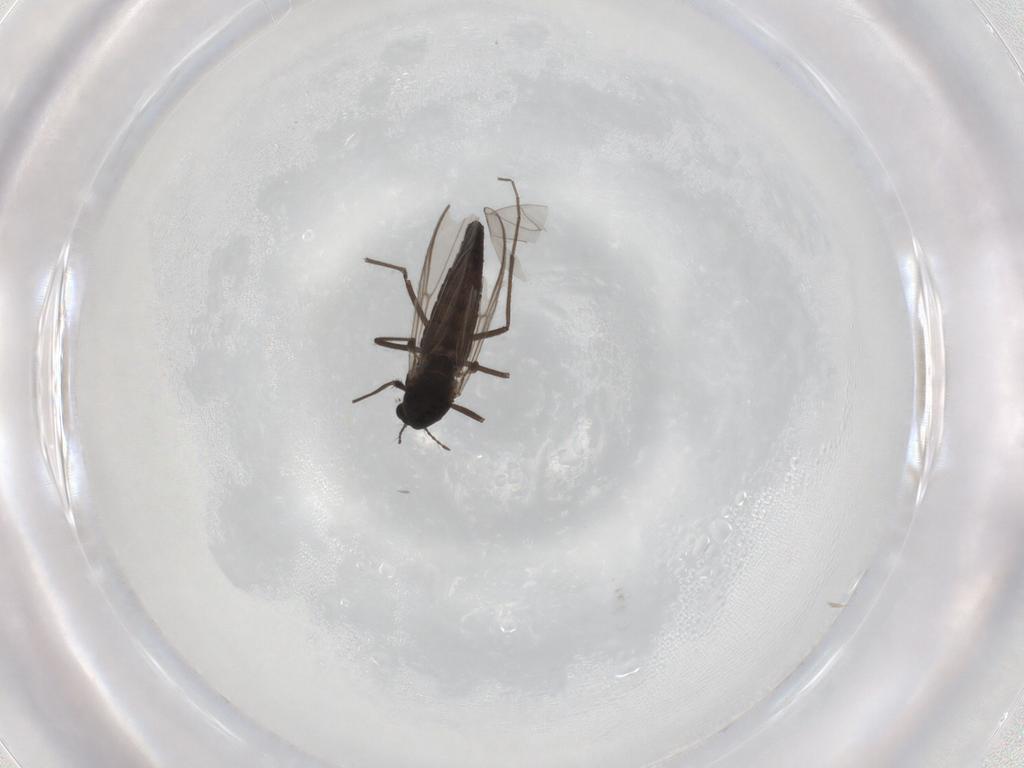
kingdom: Animalia
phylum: Arthropoda
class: Insecta
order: Diptera
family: Chironomidae
